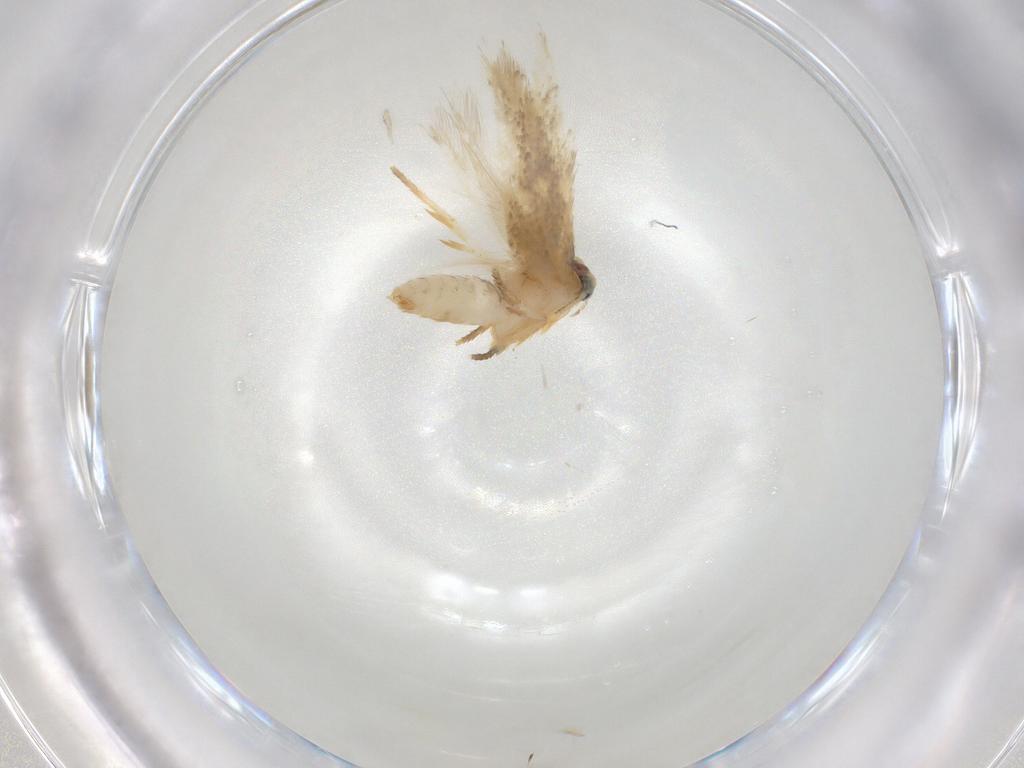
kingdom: Animalia
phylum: Arthropoda
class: Insecta
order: Lepidoptera
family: Nepticulidae
